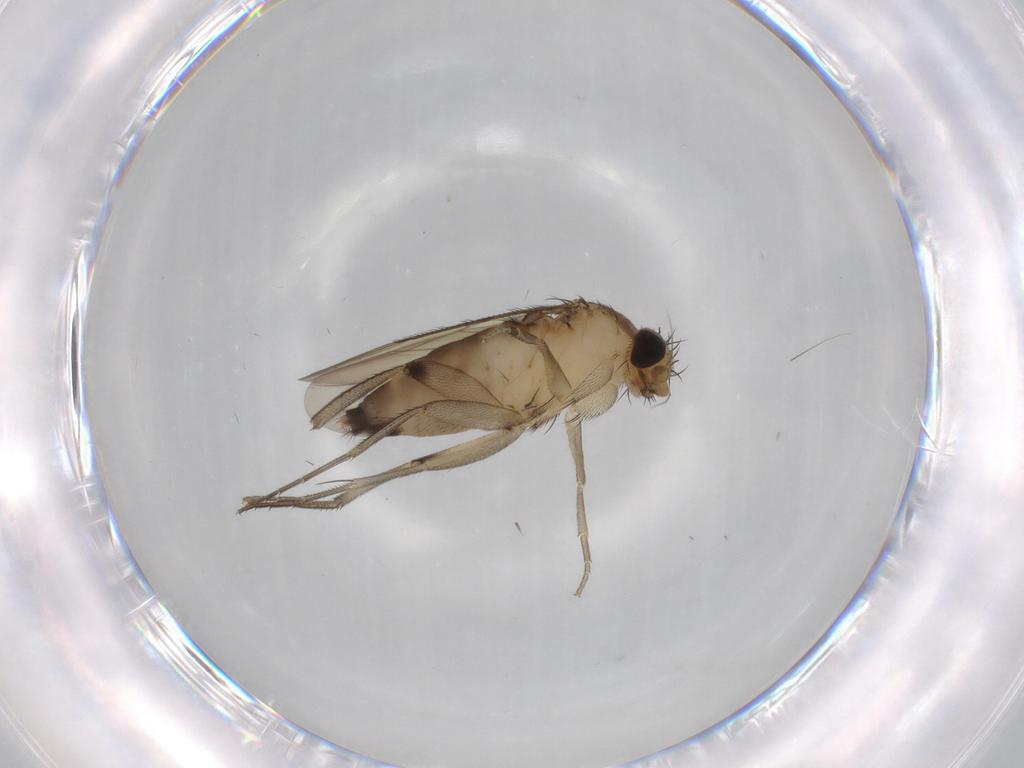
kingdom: Animalia
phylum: Arthropoda
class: Insecta
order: Diptera
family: Phoridae
